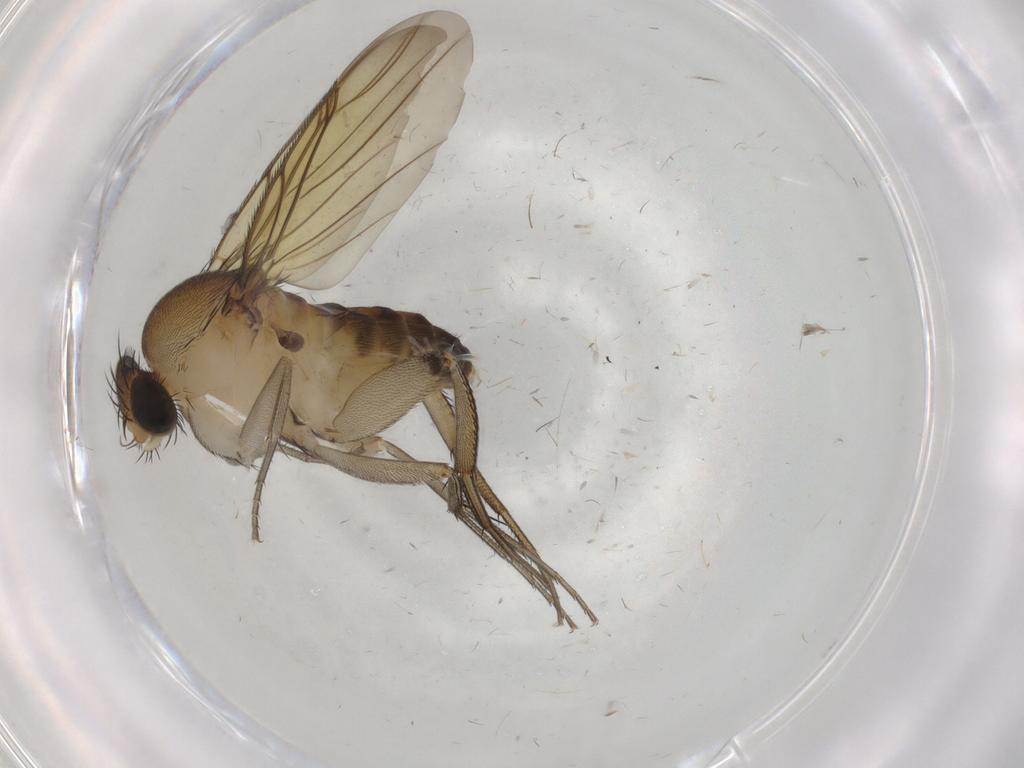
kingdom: Animalia
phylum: Arthropoda
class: Insecta
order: Diptera
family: Phoridae
